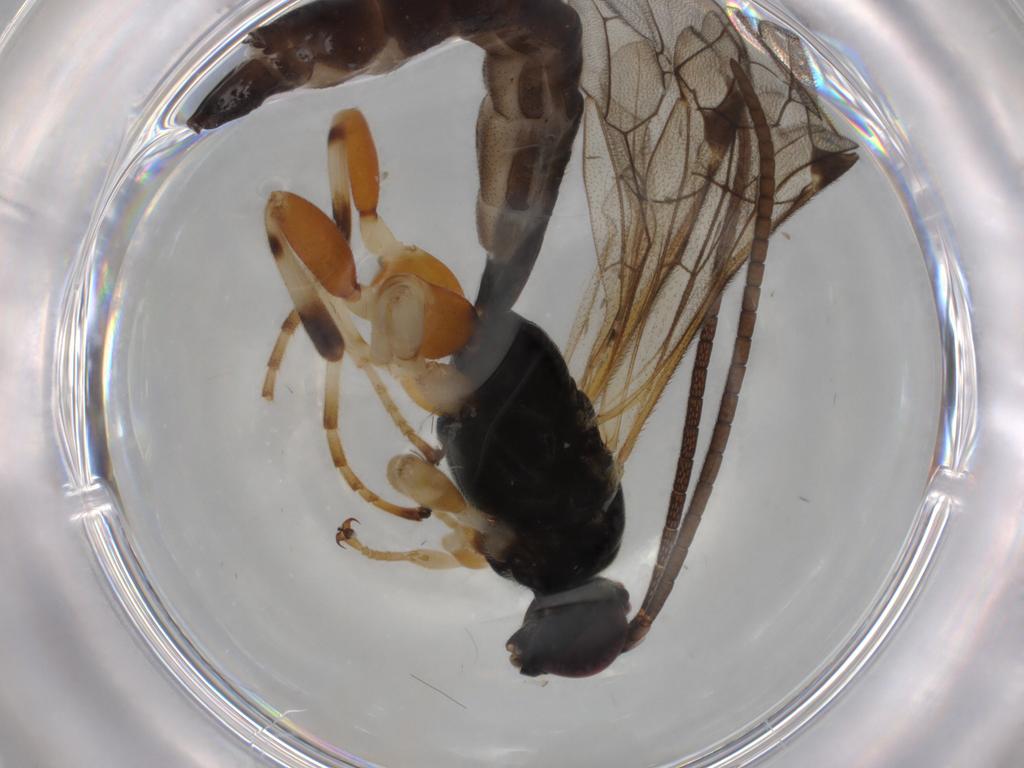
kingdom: Animalia
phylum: Arthropoda
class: Insecta
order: Hymenoptera
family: Ichneumonidae
